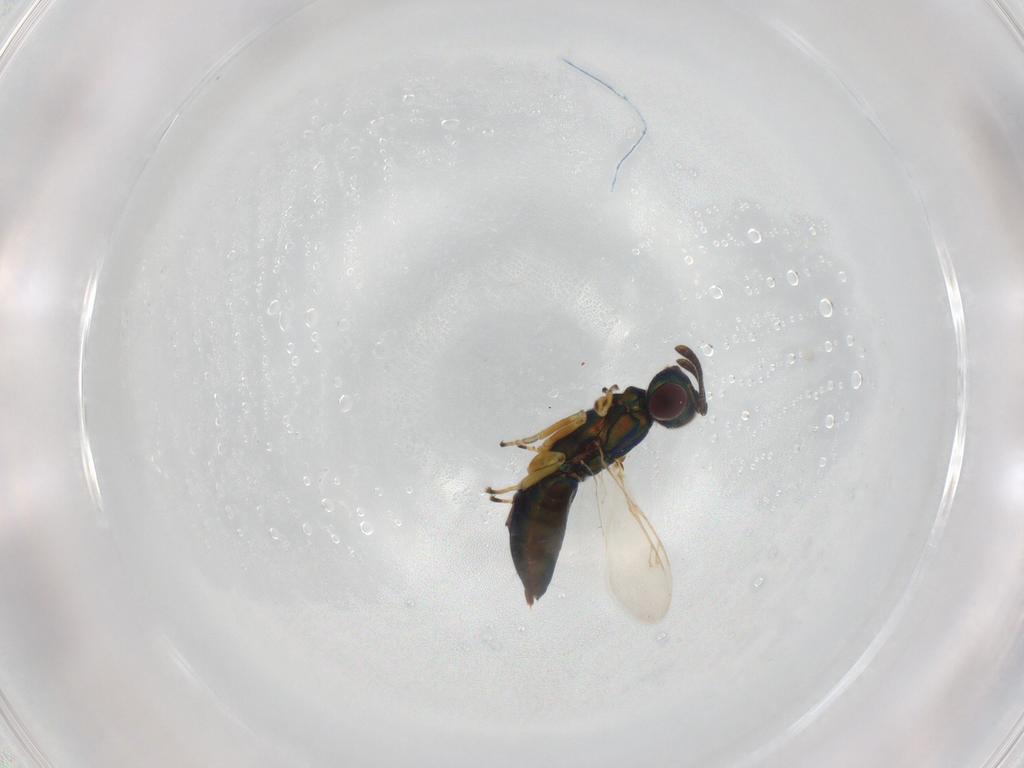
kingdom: Animalia
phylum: Arthropoda
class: Insecta
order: Hymenoptera
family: Eupelmidae
